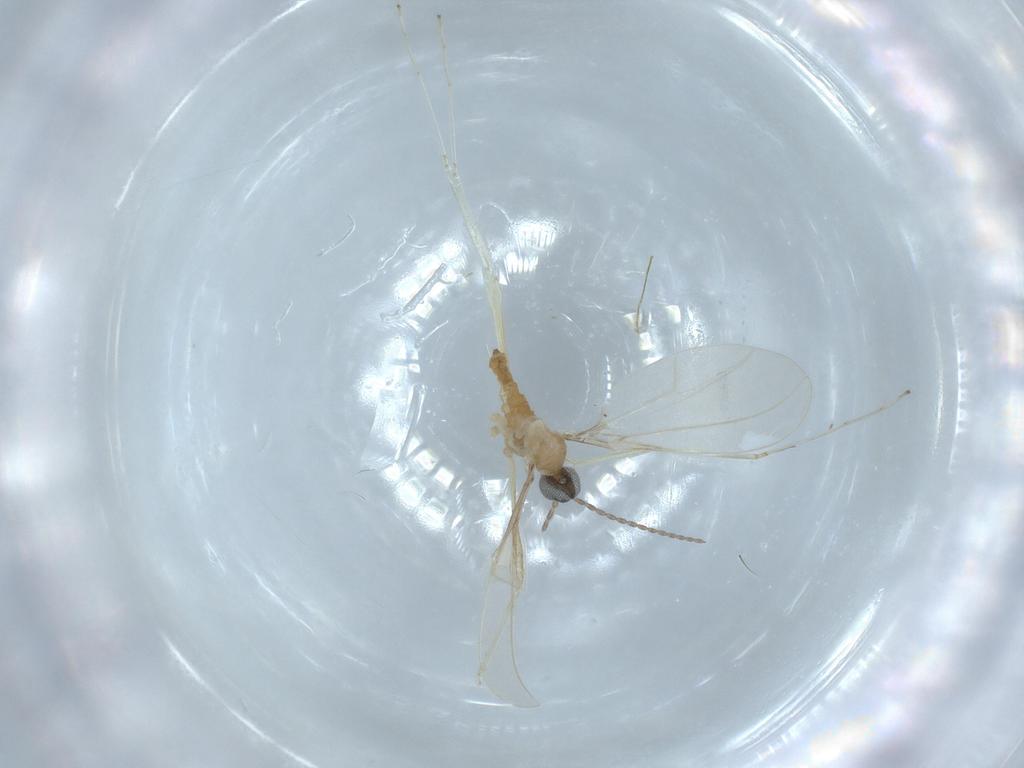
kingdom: Animalia
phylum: Arthropoda
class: Insecta
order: Diptera
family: Cecidomyiidae
